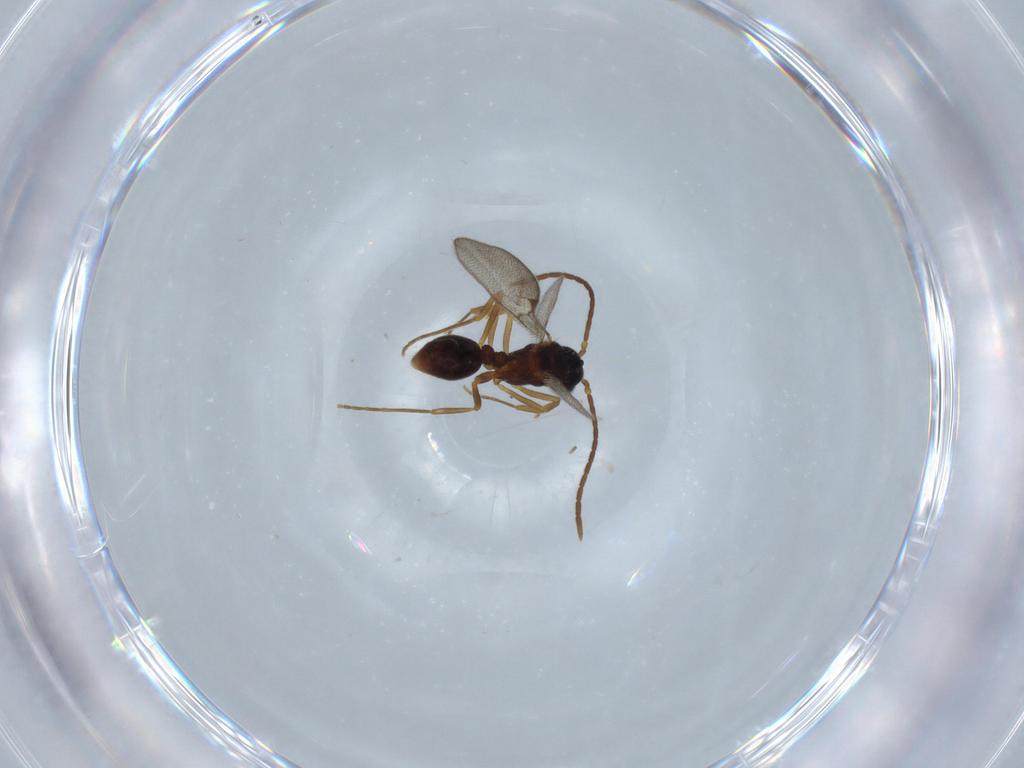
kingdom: Animalia
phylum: Arthropoda
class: Insecta
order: Hymenoptera
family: Formicidae
